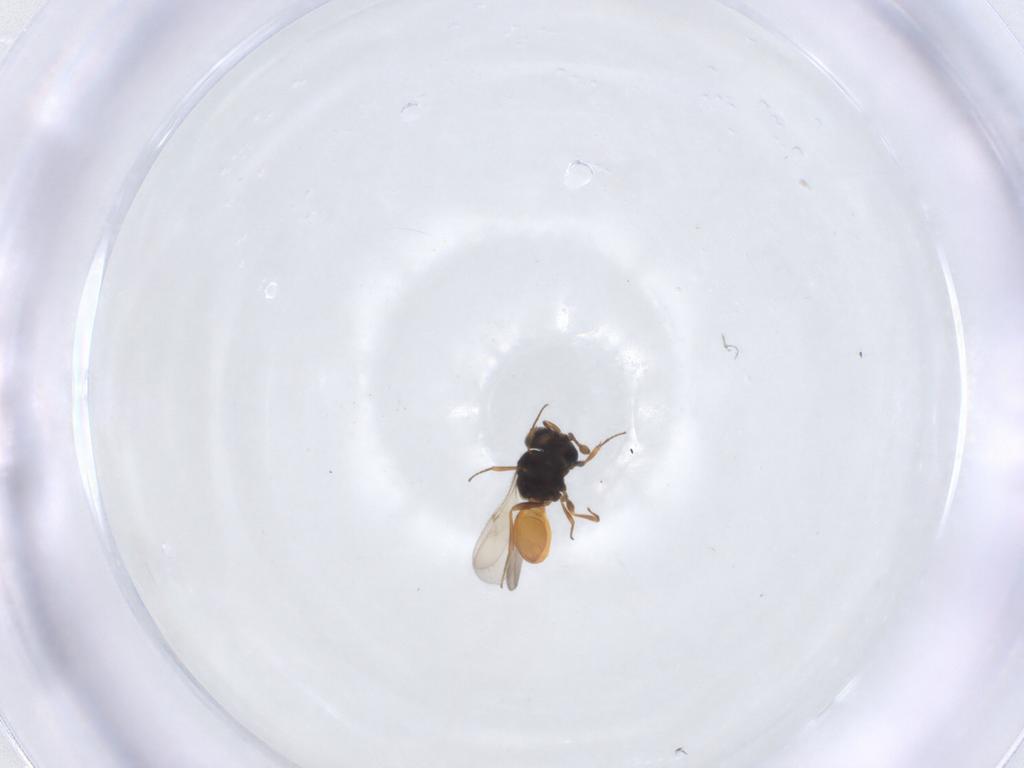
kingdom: Animalia
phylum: Arthropoda
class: Insecta
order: Hymenoptera
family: Scelionidae
